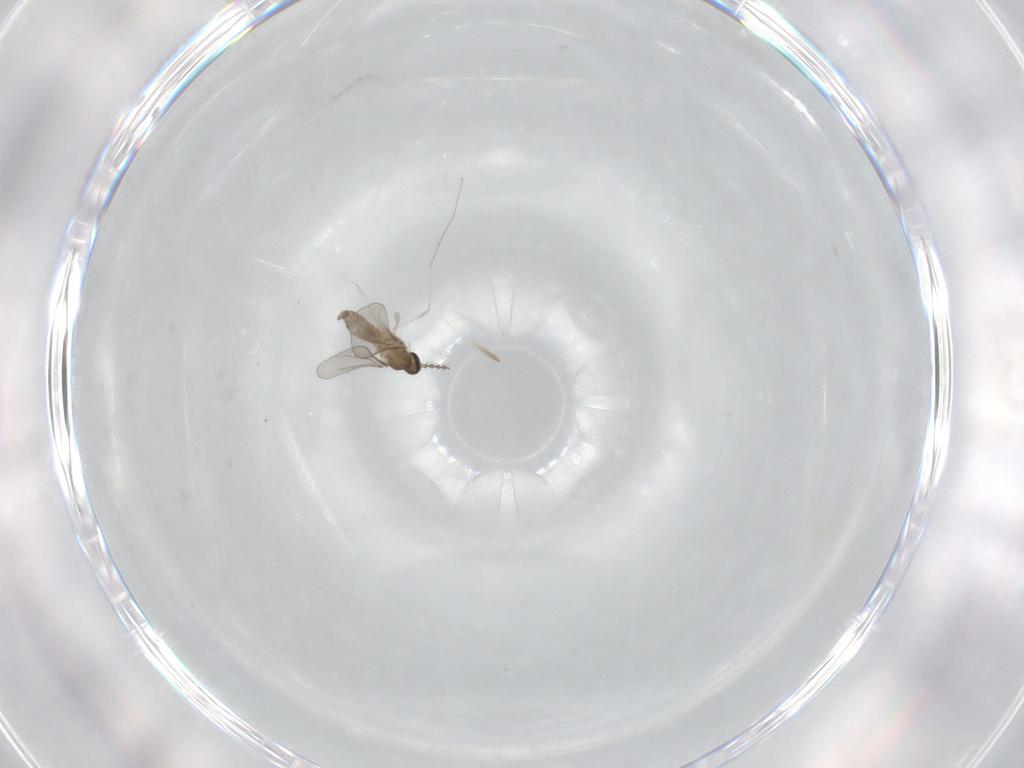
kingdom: Animalia
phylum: Arthropoda
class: Insecta
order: Diptera
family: Cecidomyiidae
